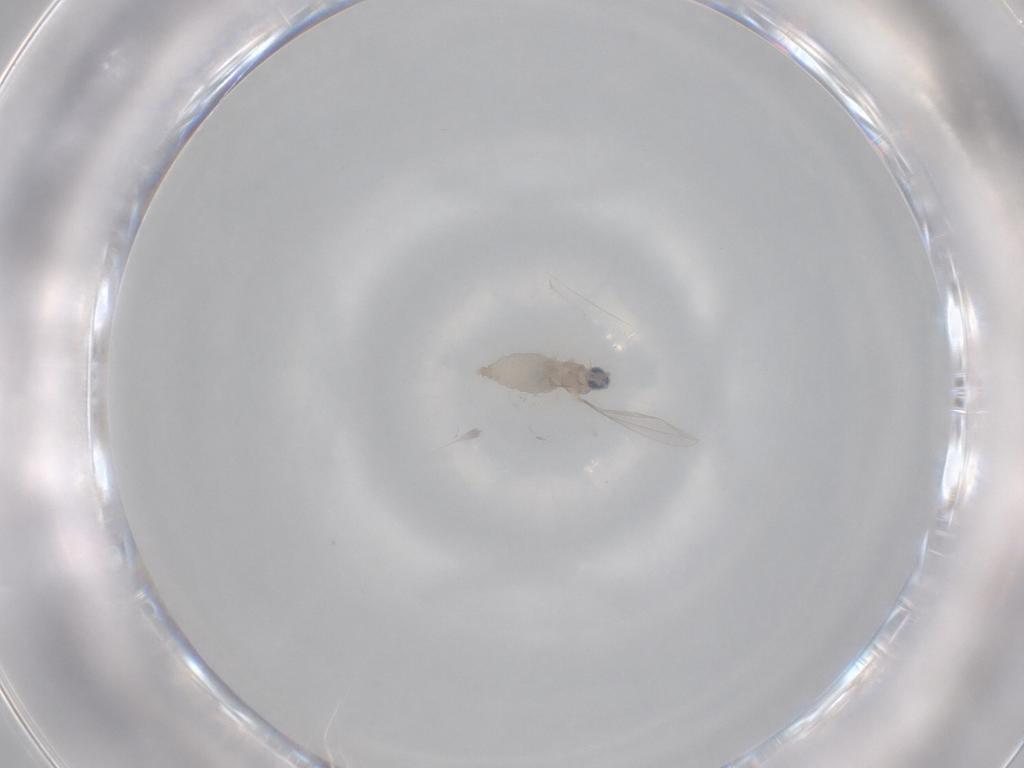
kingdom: Animalia
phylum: Arthropoda
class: Insecta
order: Diptera
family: Cecidomyiidae
